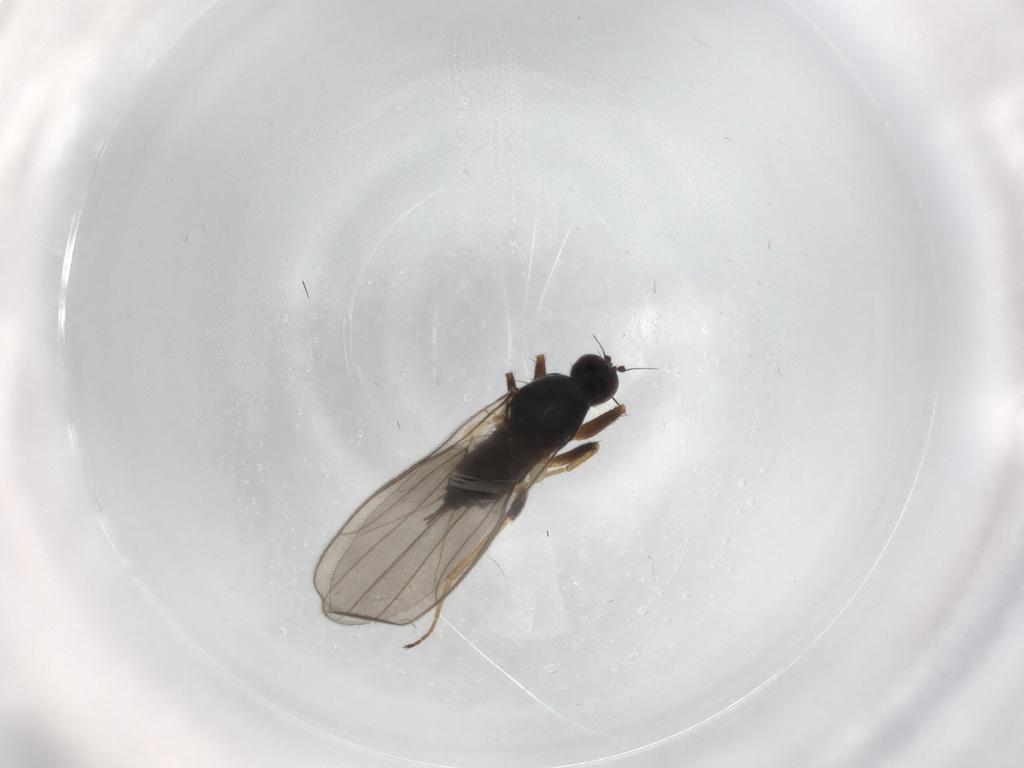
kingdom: Animalia
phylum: Arthropoda
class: Insecta
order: Diptera
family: Hybotidae
